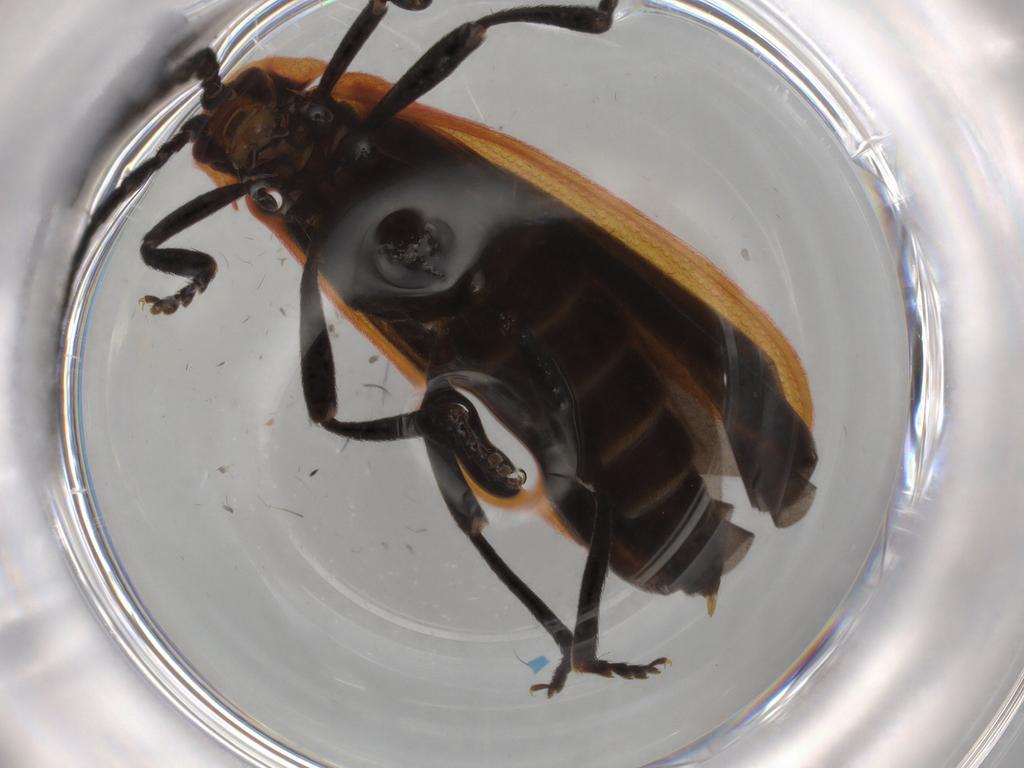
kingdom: Animalia
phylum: Arthropoda
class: Insecta
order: Coleoptera
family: Lycidae
